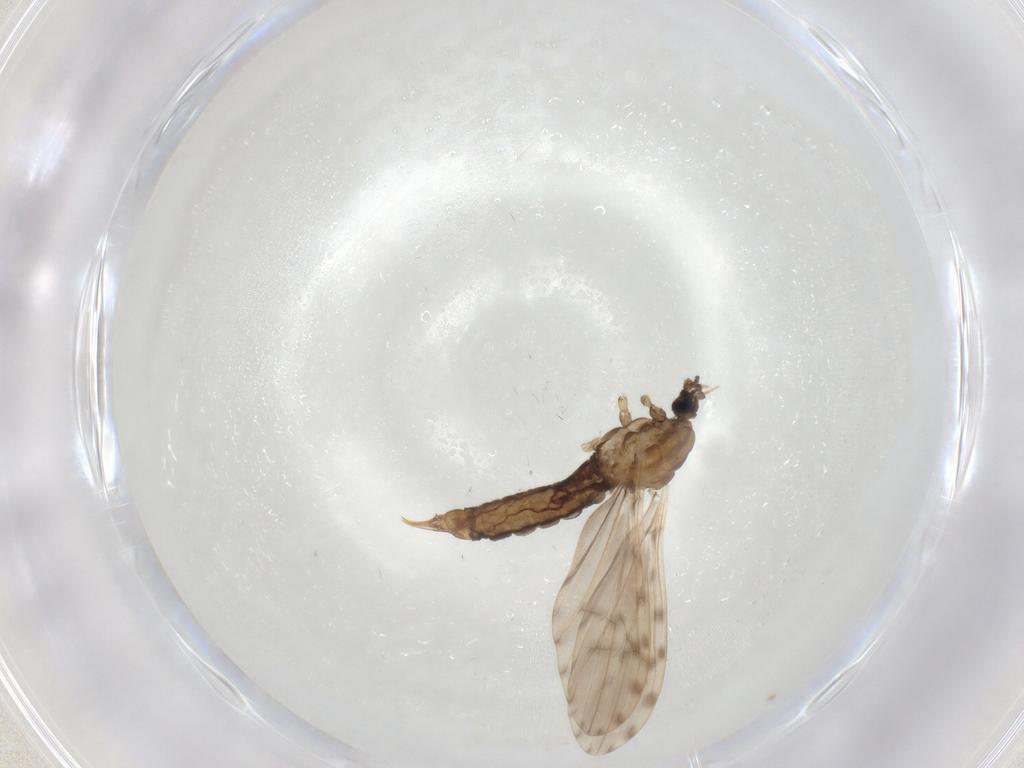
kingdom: Animalia
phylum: Arthropoda
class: Insecta
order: Diptera
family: Limoniidae
